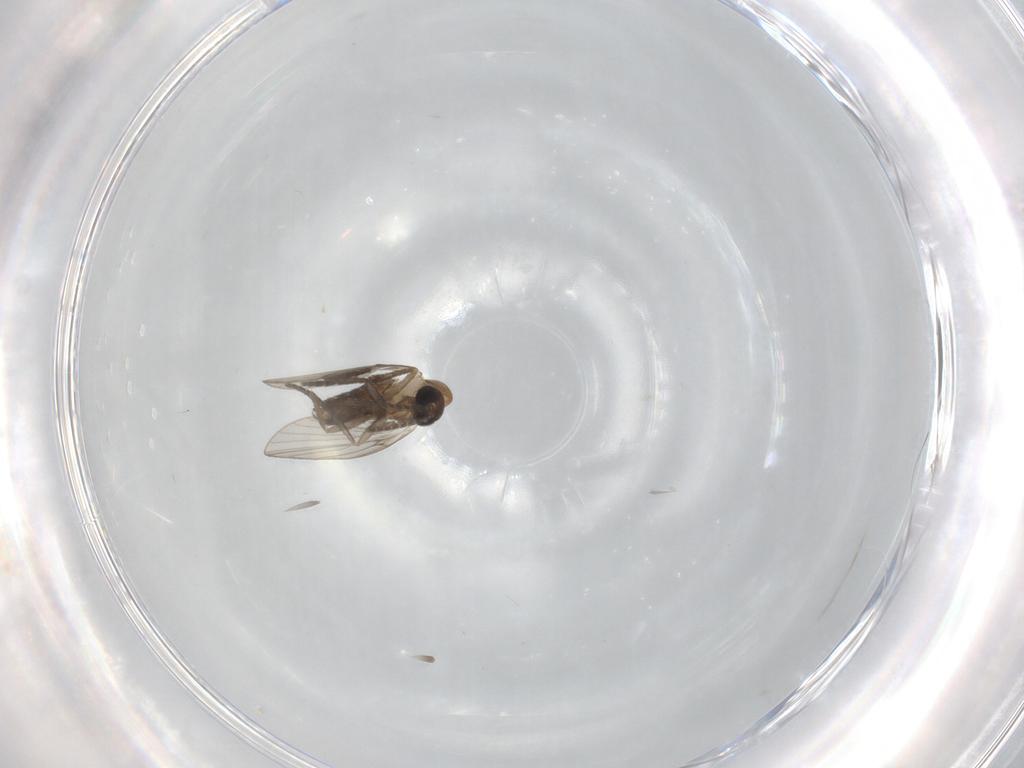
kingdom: Animalia
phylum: Arthropoda
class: Insecta
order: Diptera
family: Psychodidae
